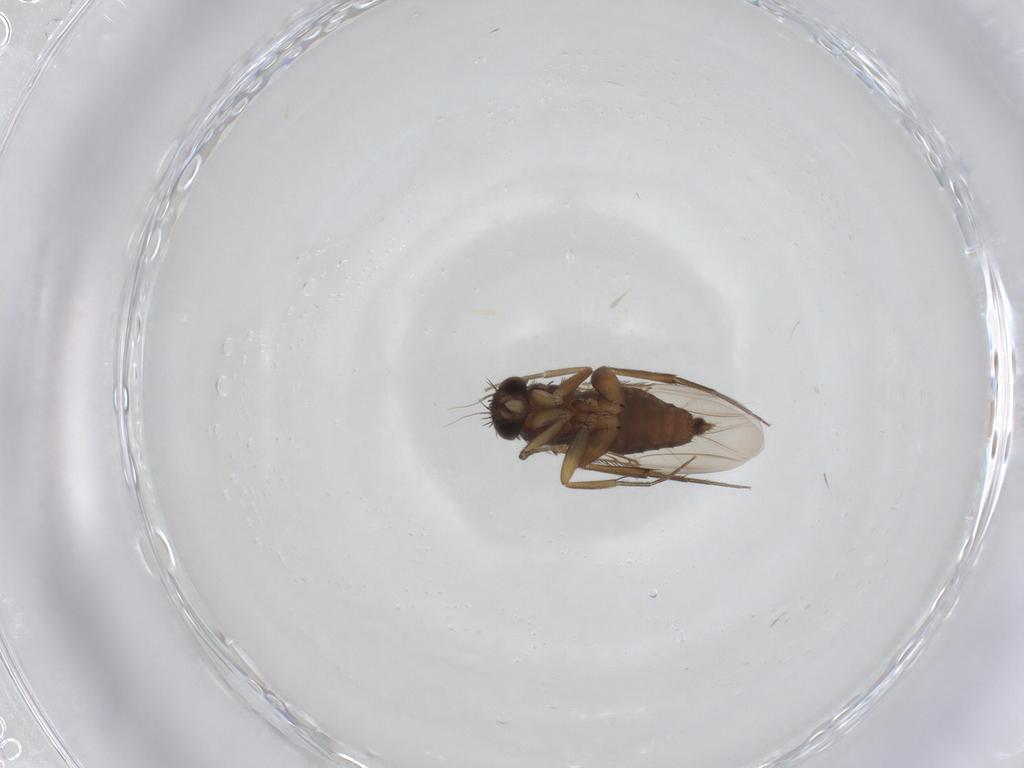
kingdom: Animalia
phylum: Arthropoda
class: Insecta
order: Diptera
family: Phoridae
